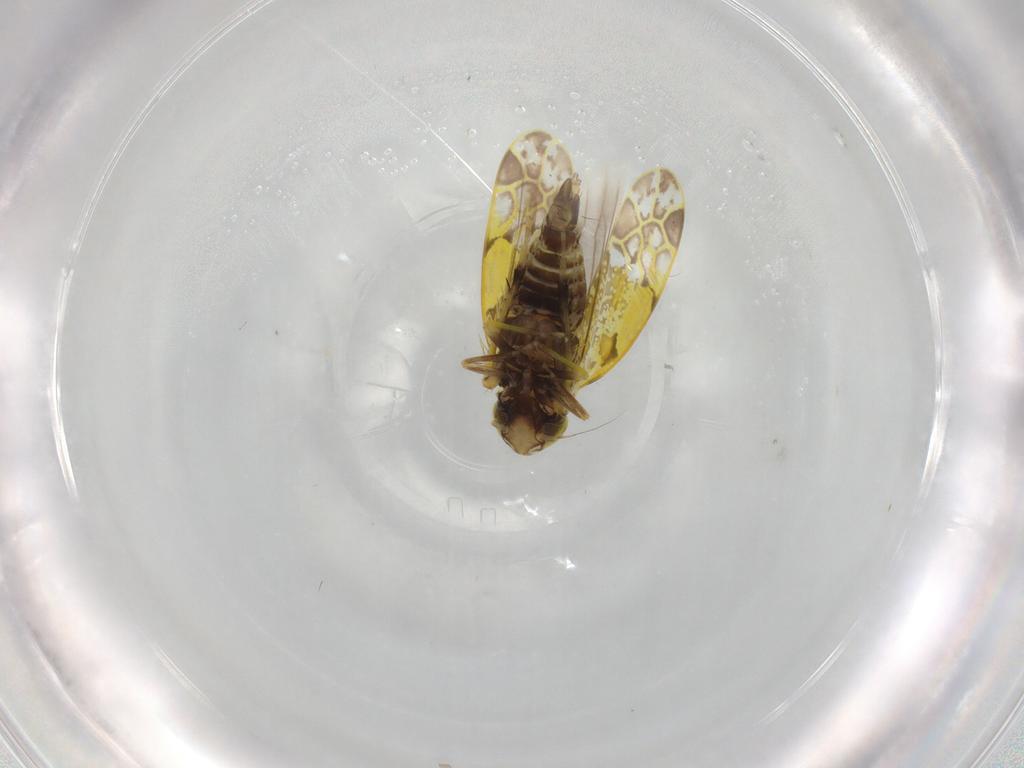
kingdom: Animalia
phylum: Arthropoda
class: Insecta
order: Hemiptera
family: Cicadellidae
